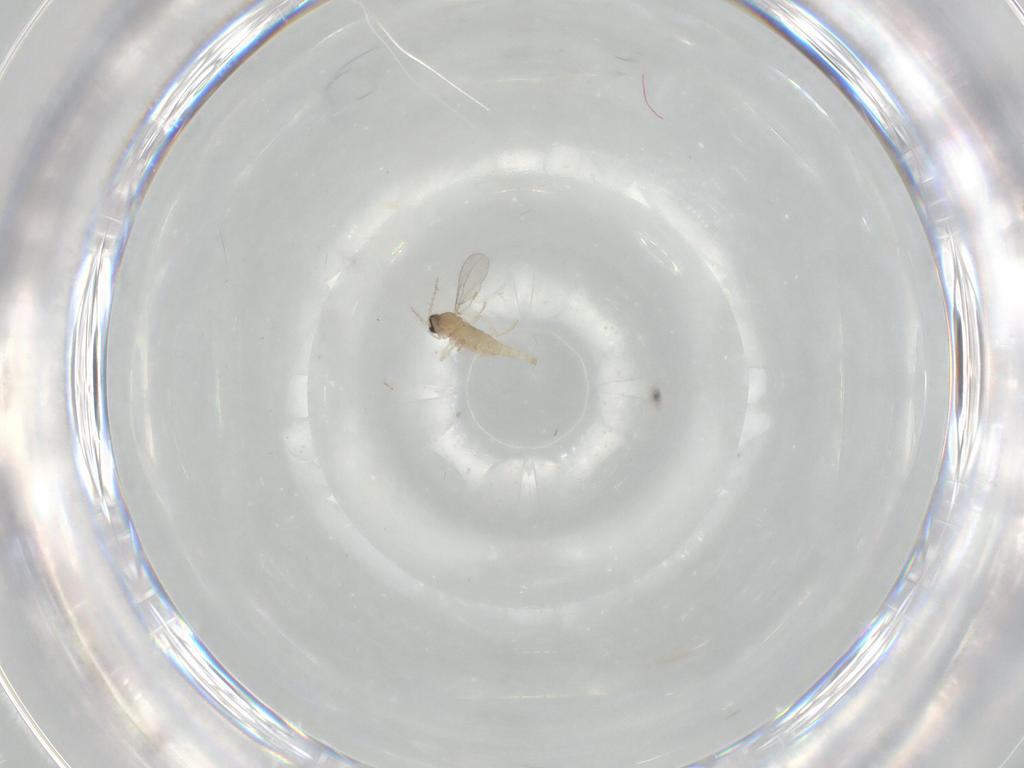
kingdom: Animalia
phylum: Arthropoda
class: Insecta
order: Diptera
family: Cecidomyiidae
